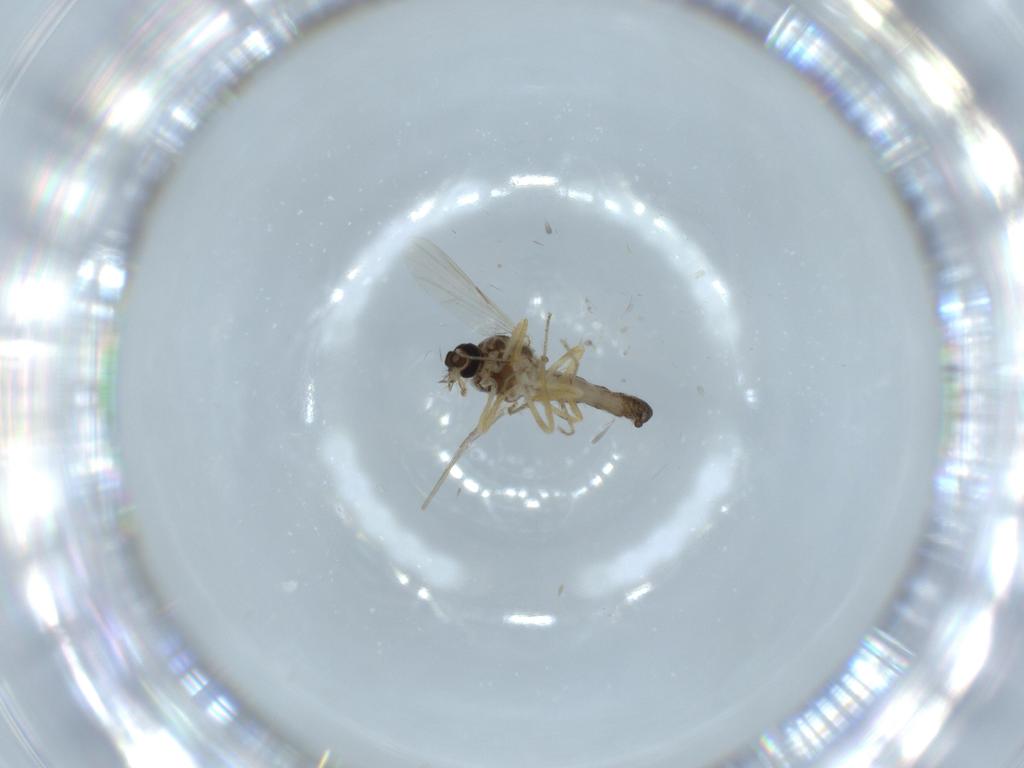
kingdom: Animalia
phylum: Arthropoda
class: Insecta
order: Diptera
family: Ceratopogonidae
